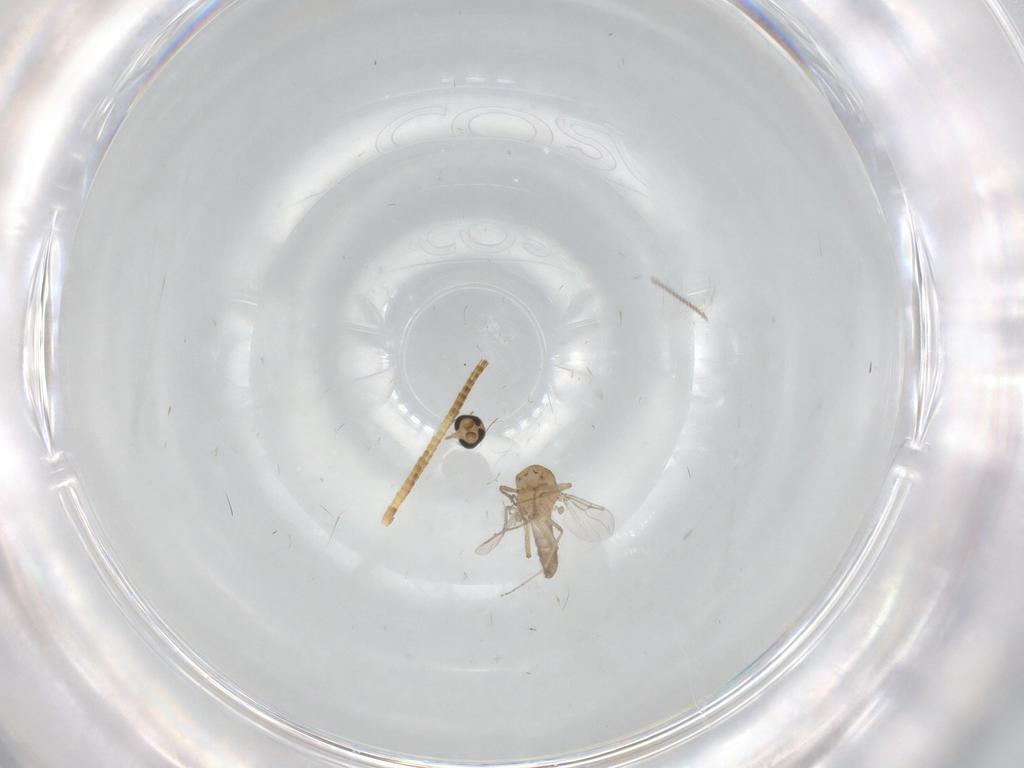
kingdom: Animalia
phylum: Arthropoda
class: Insecta
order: Diptera
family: Ceratopogonidae
